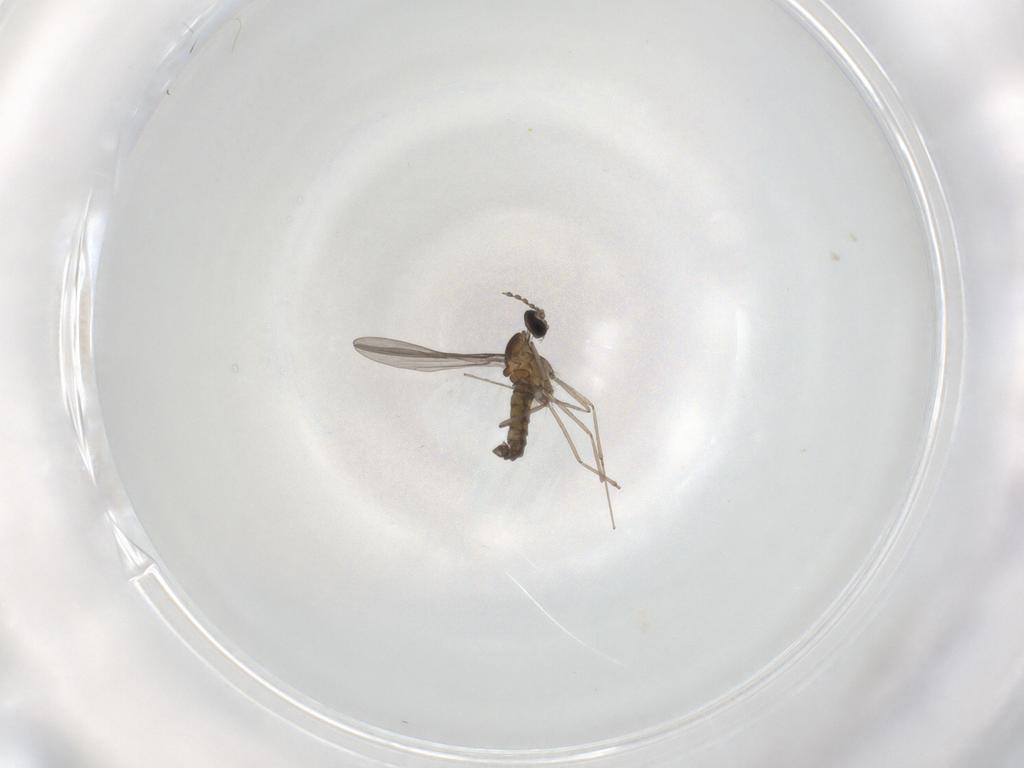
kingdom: Animalia
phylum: Arthropoda
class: Insecta
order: Diptera
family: Cecidomyiidae
